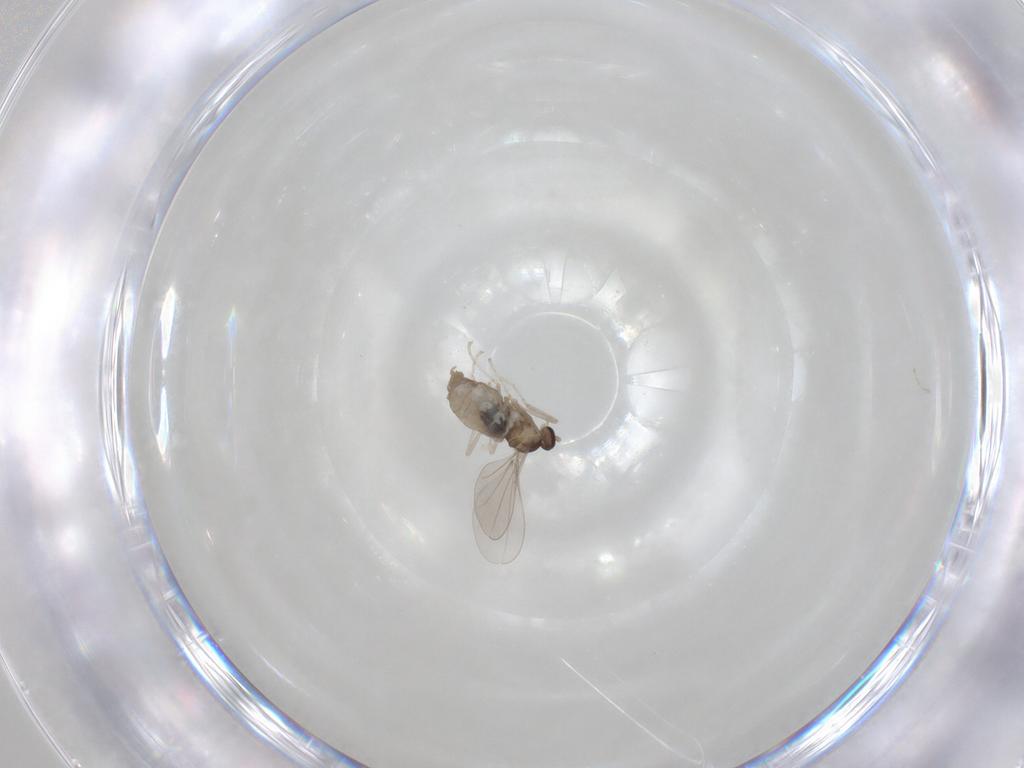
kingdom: Animalia
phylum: Arthropoda
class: Insecta
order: Diptera
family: Cecidomyiidae
